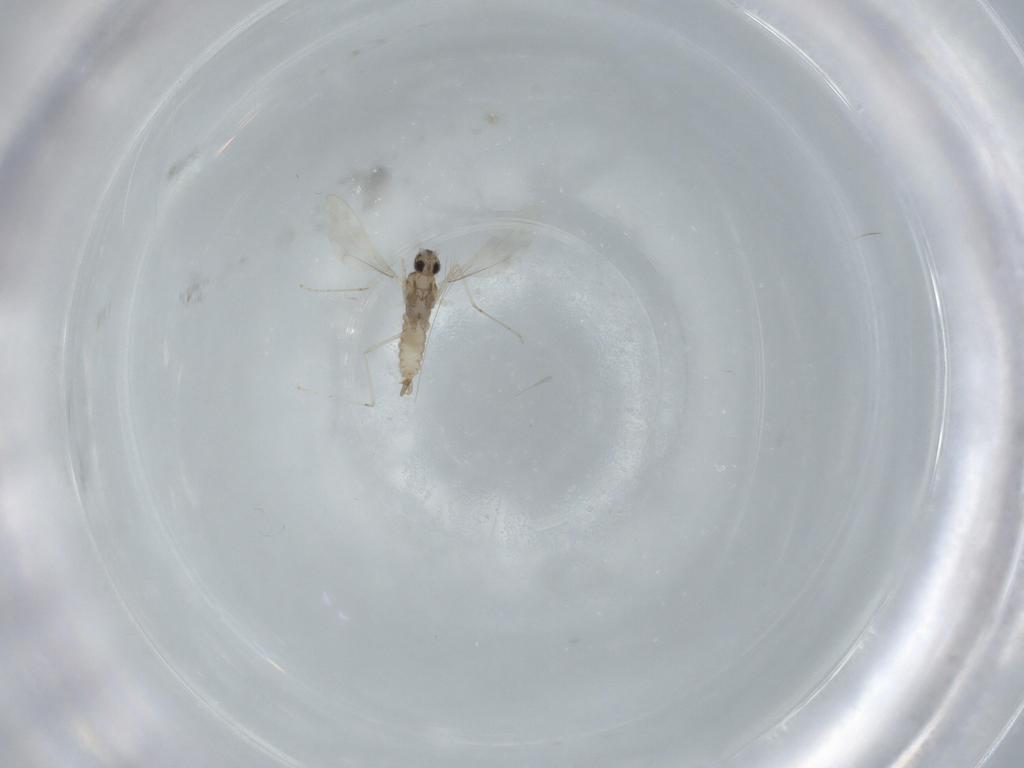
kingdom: Animalia
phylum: Arthropoda
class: Insecta
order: Diptera
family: Cecidomyiidae
